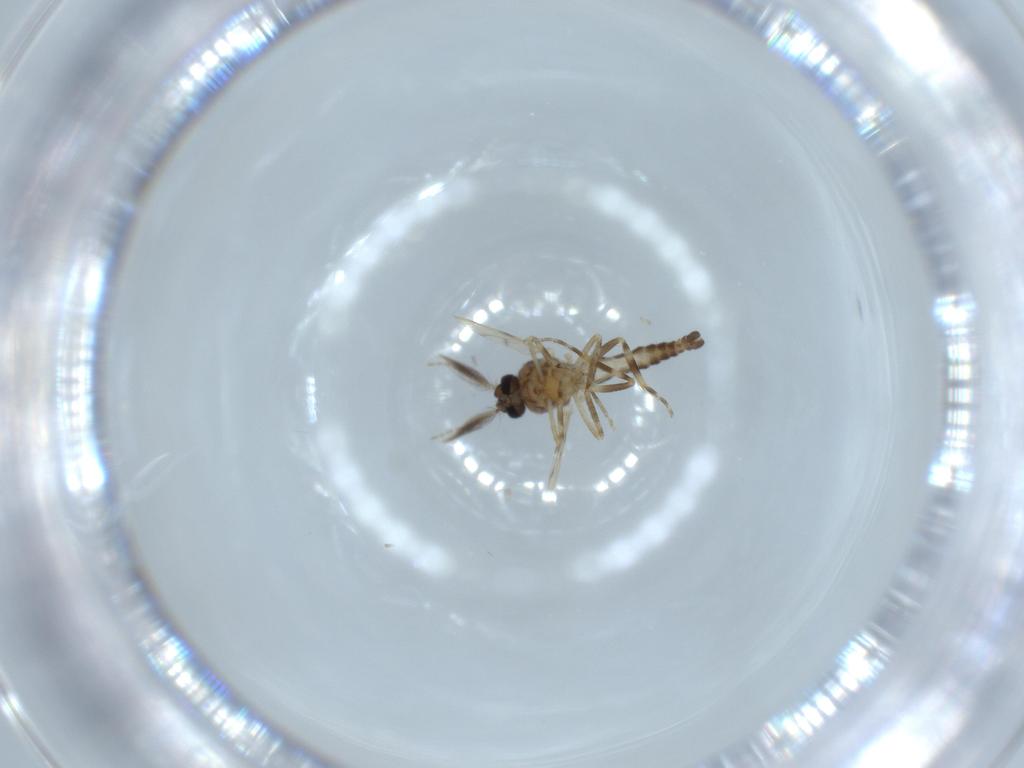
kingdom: Animalia
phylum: Arthropoda
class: Insecta
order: Diptera
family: Ceratopogonidae
